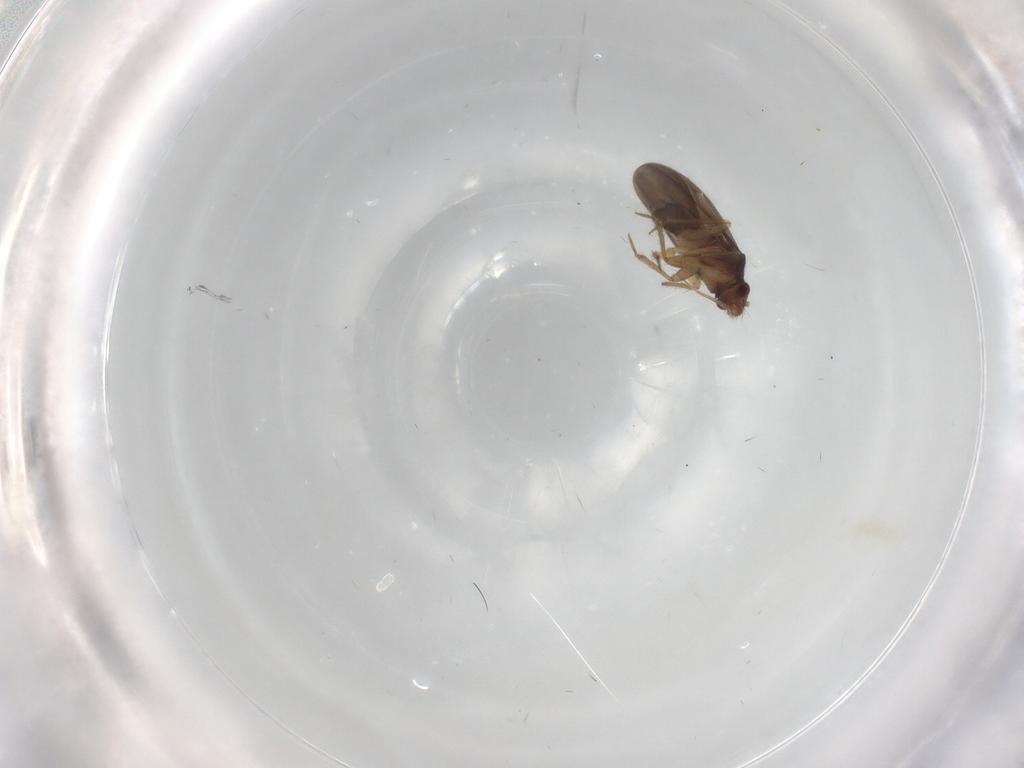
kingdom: Animalia
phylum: Arthropoda
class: Insecta
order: Hemiptera
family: Ceratocombidae
